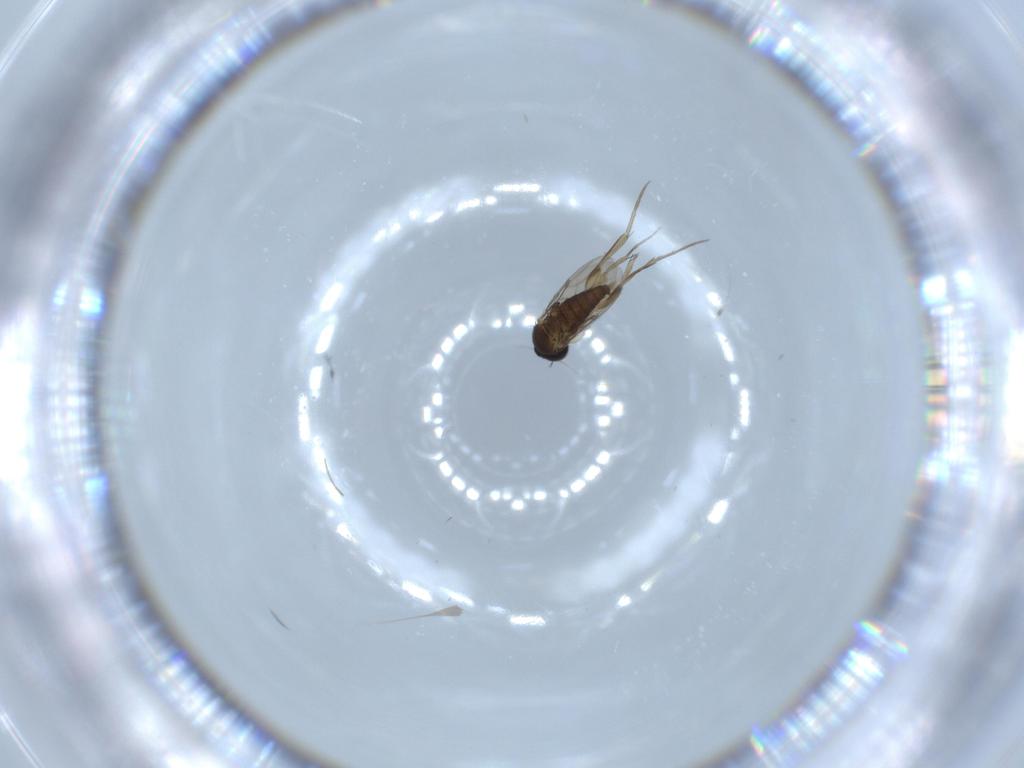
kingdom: Animalia
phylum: Arthropoda
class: Insecta
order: Diptera
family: Phoridae
